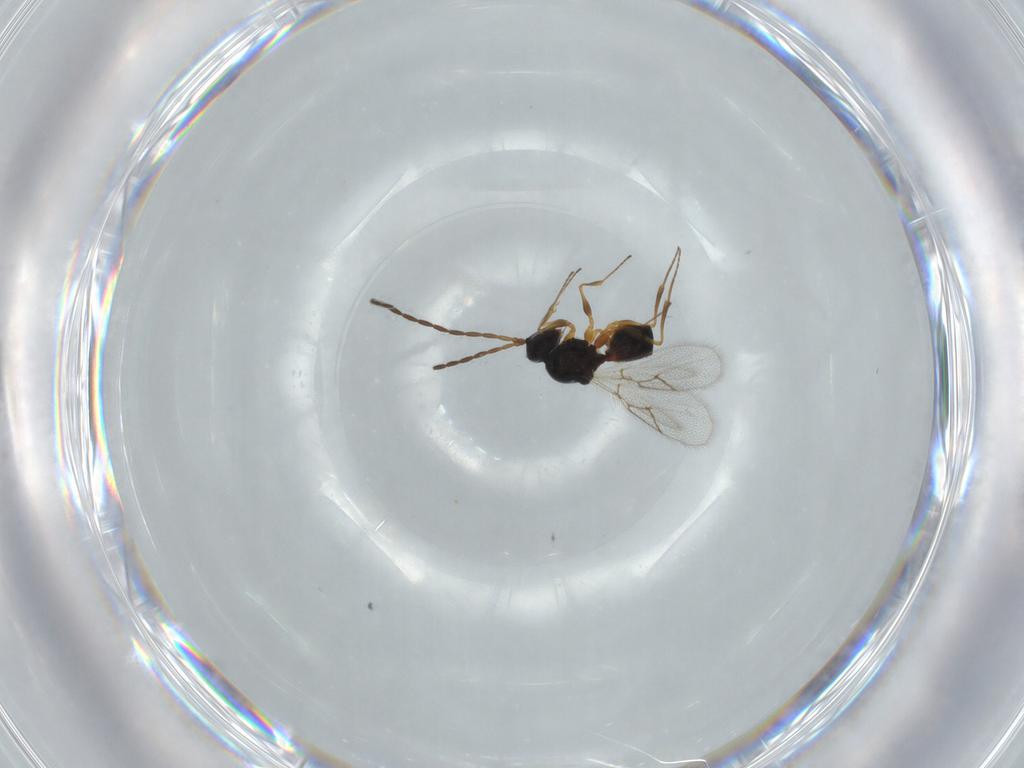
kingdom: Animalia
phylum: Arthropoda
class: Insecta
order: Hymenoptera
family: Figitidae
